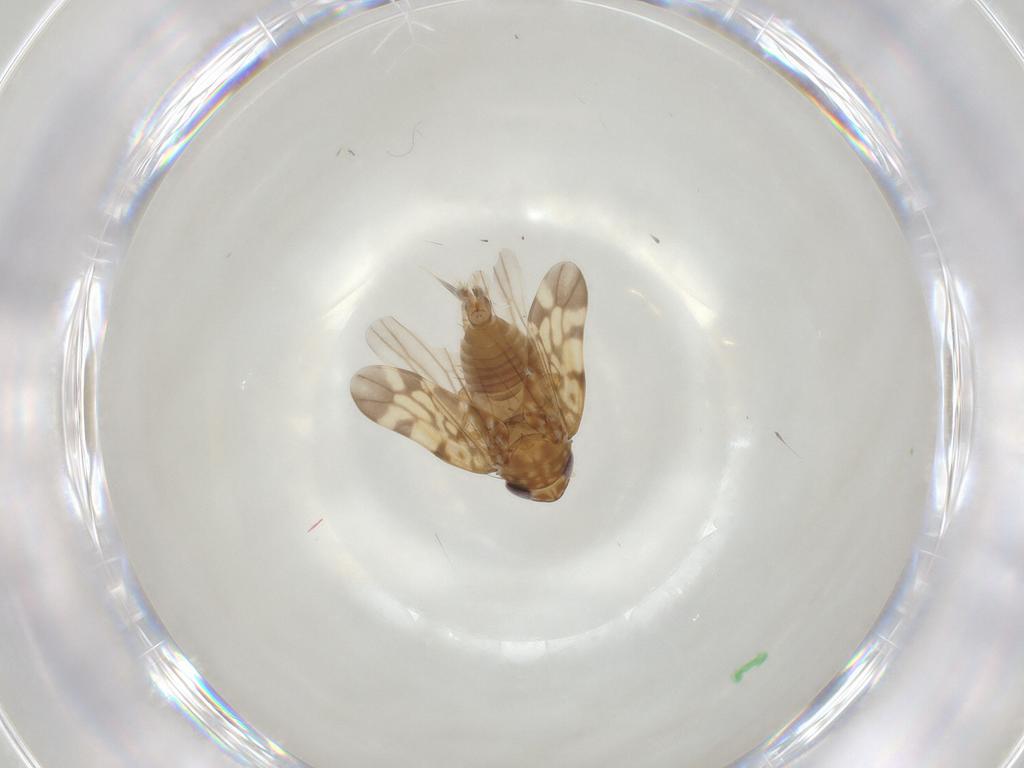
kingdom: Animalia
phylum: Arthropoda
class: Insecta
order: Hemiptera
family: Cicadellidae
